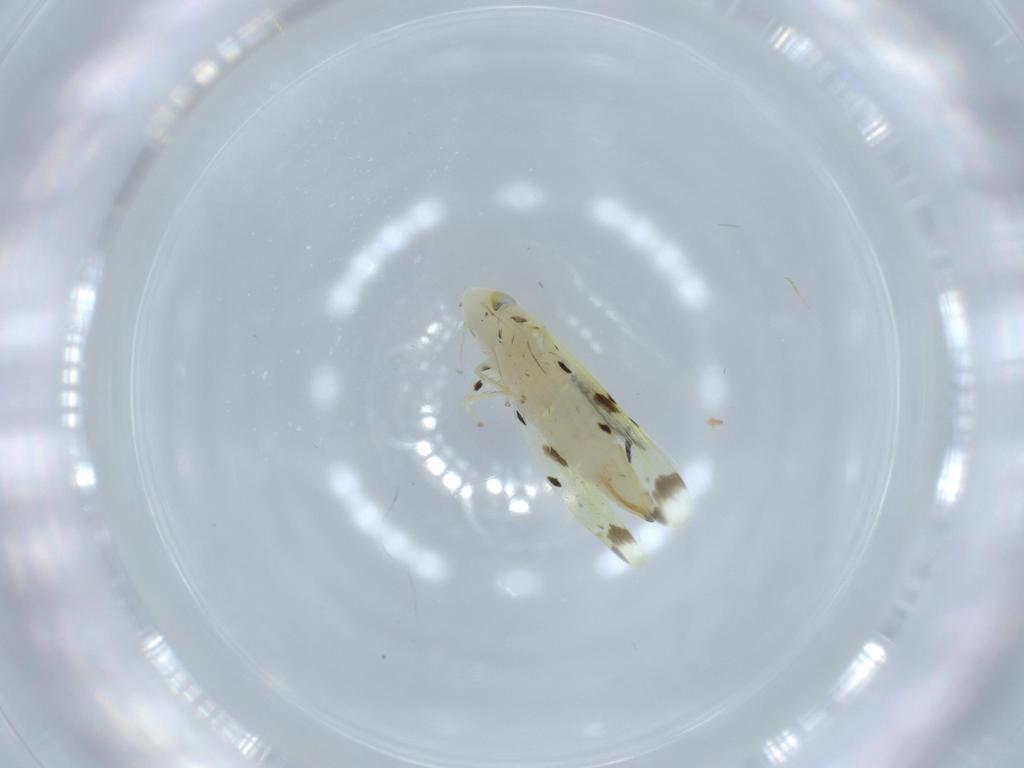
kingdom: Animalia
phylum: Arthropoda
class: Insecta
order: Hemiptera
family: Cicadellidae
